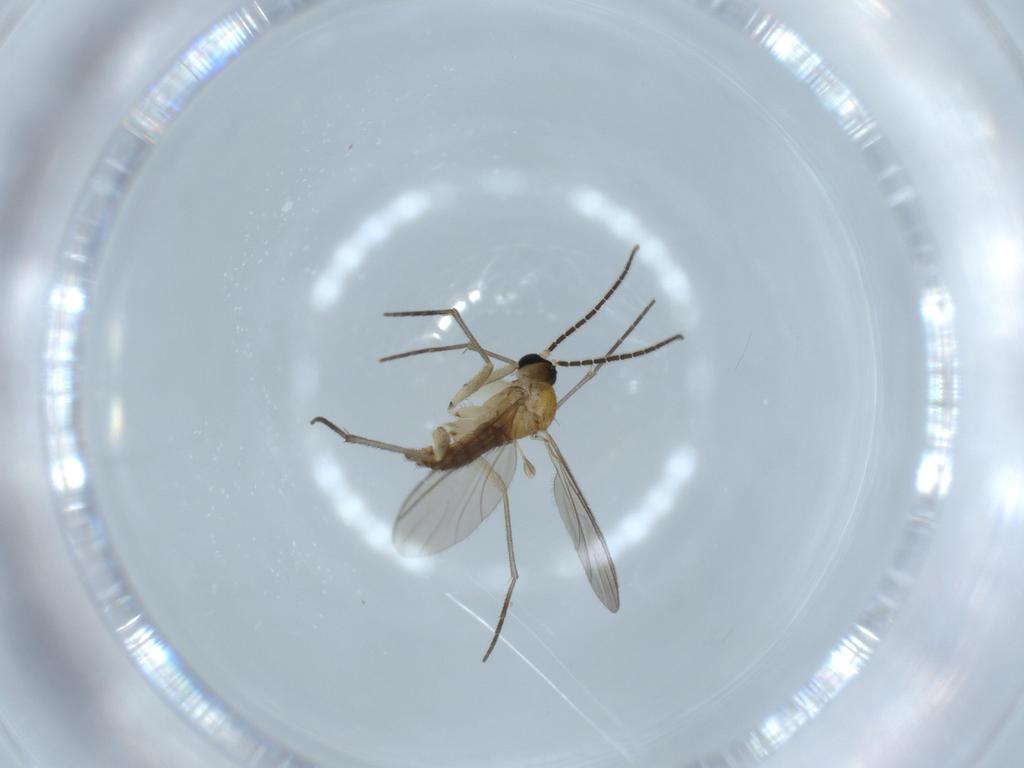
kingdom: Animalia
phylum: Arthropoda
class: Insecta
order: Diptera
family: Sciaridae
